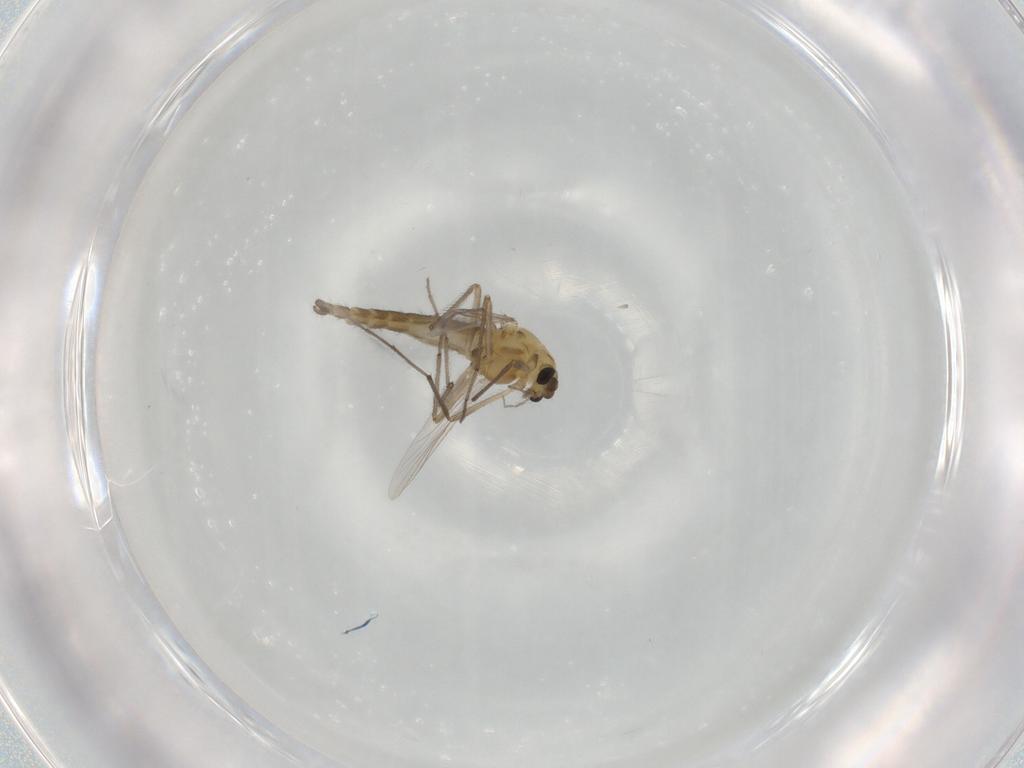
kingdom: Animalia
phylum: Arthropoda
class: Insecta
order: Diptera
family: Chironomidae
